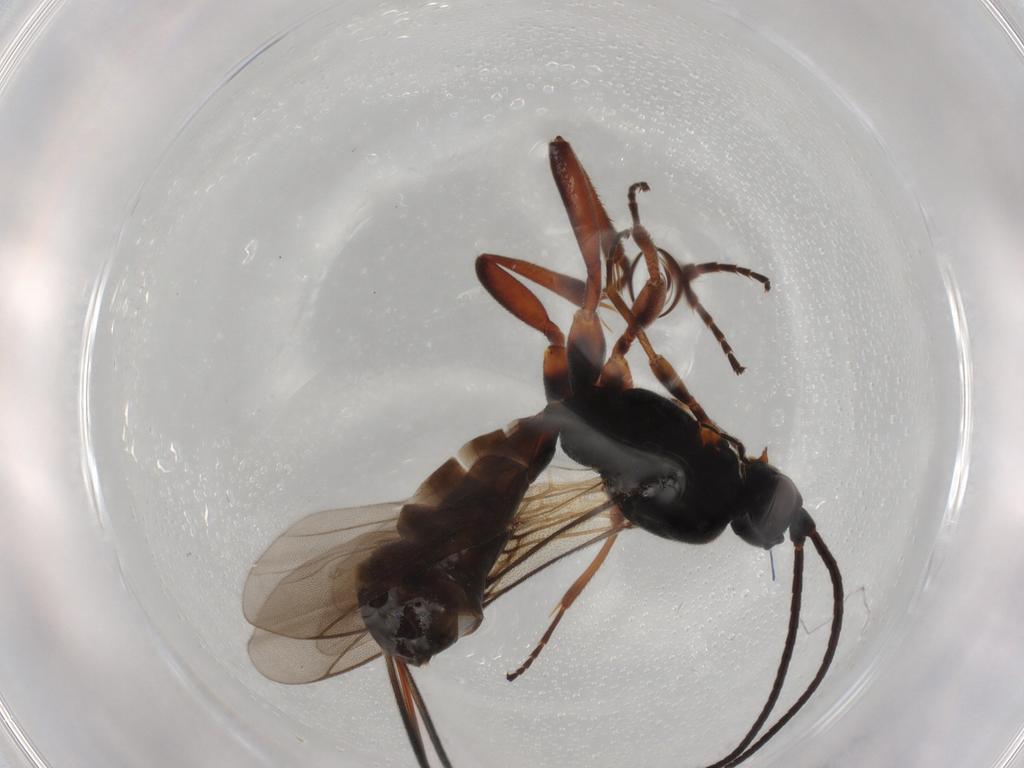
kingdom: Animalia
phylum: Arthropoda
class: Insecta
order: Hymenoptera
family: Braconidae
